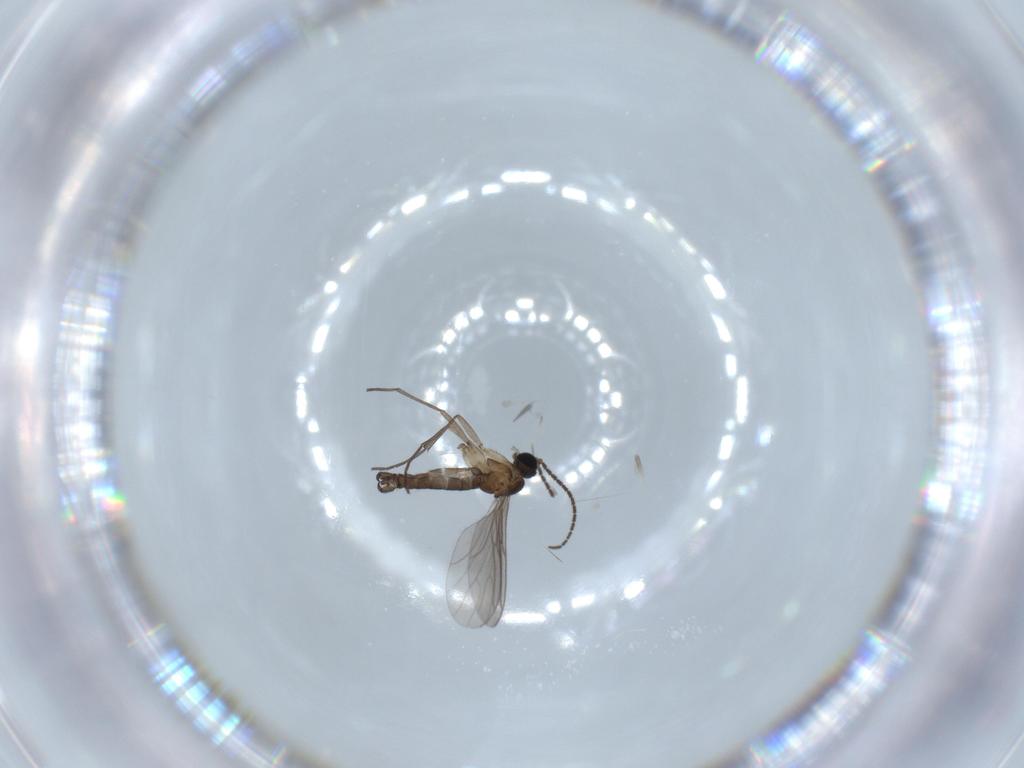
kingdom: Animalia
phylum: Arthropoda
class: Insecta
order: Diptera
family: Sciaridae
